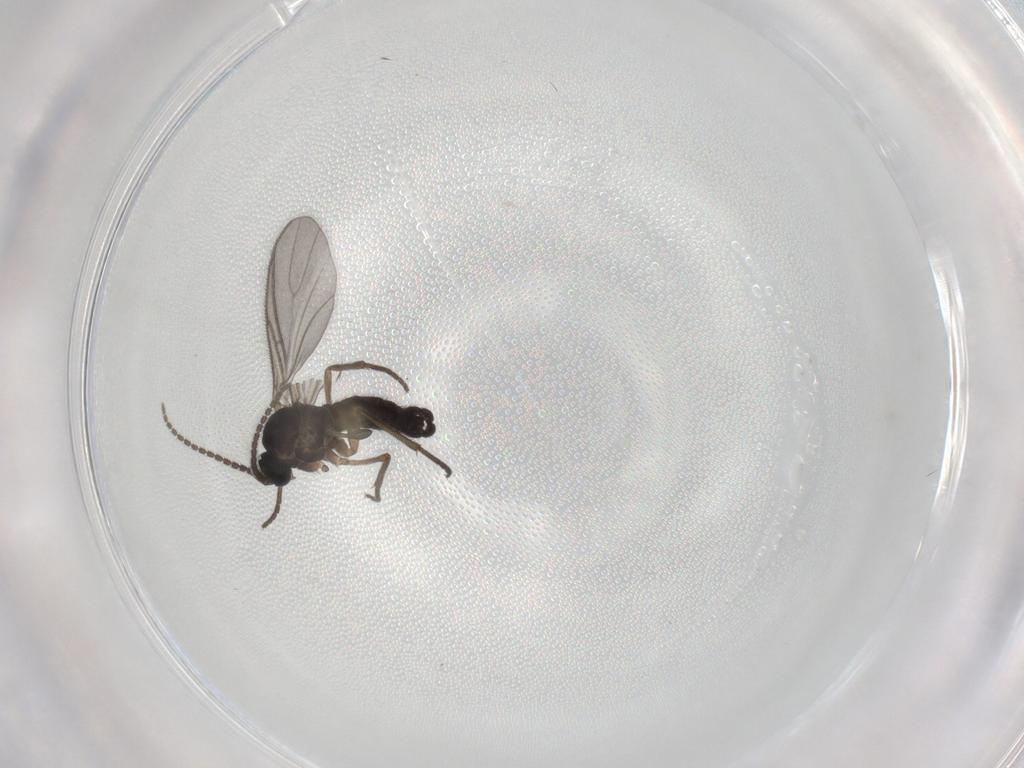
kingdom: Animalia
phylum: Arthropoda
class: Insecta
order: Diptera
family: Sciaridae
